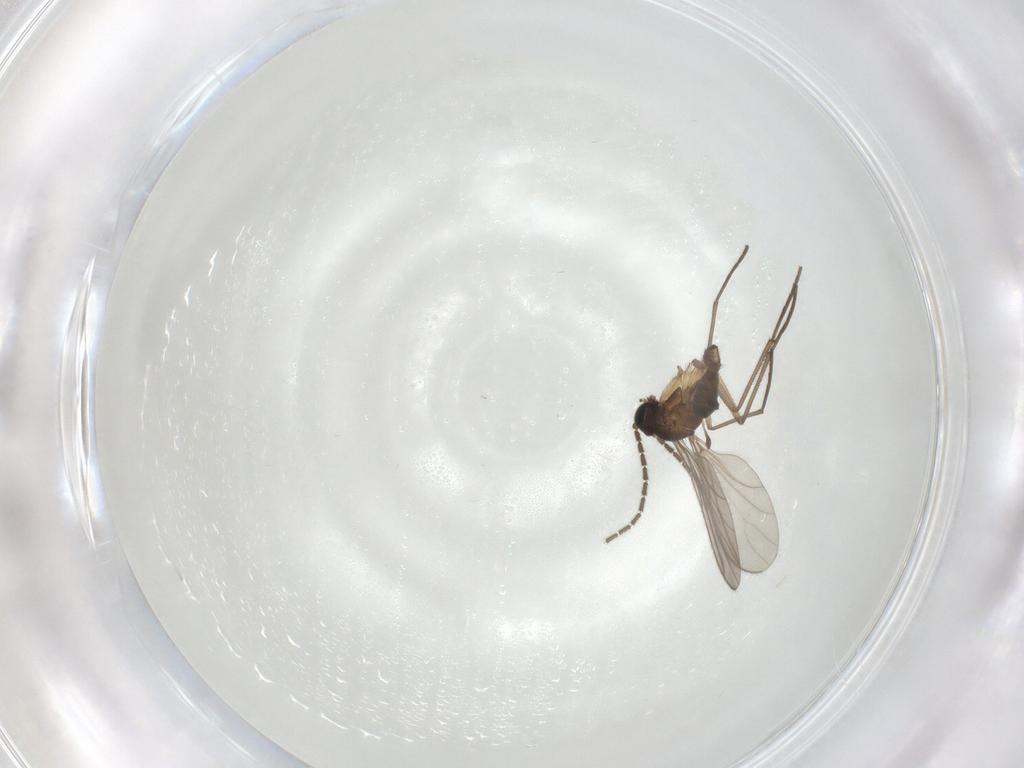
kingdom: Animalia
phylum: Arthropoda
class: Insecta
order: Diptera
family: Sciaridae
